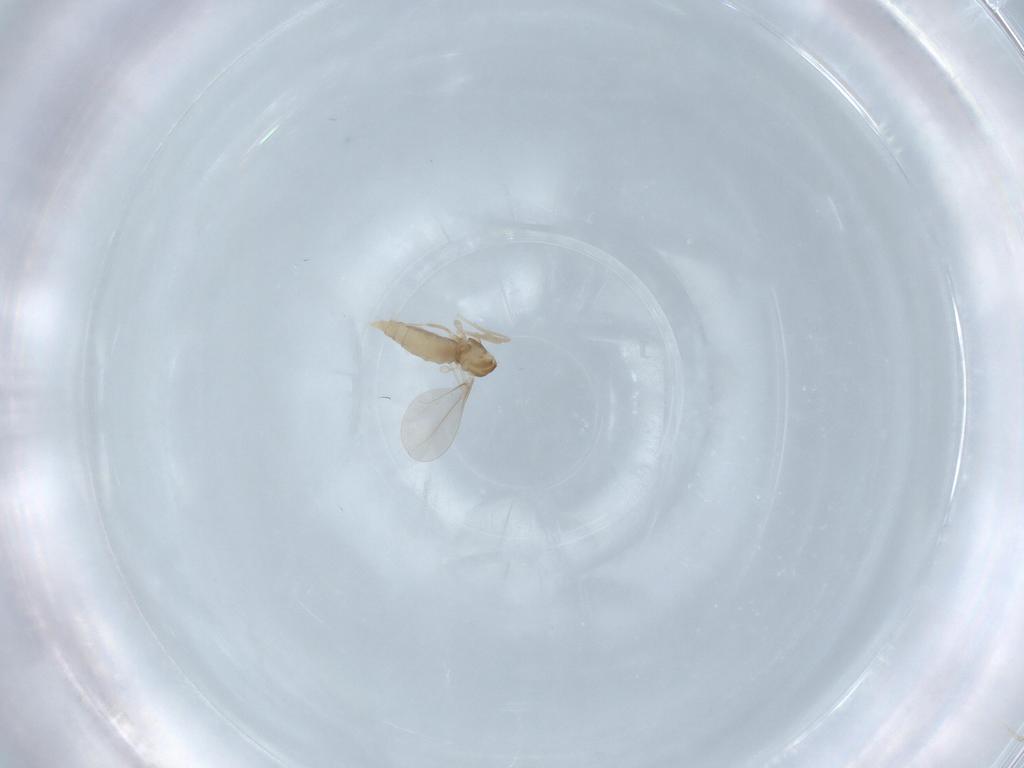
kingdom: Animalia
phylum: Arthropoda
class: Insecta
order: Diptera
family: Cecidomyiidae
